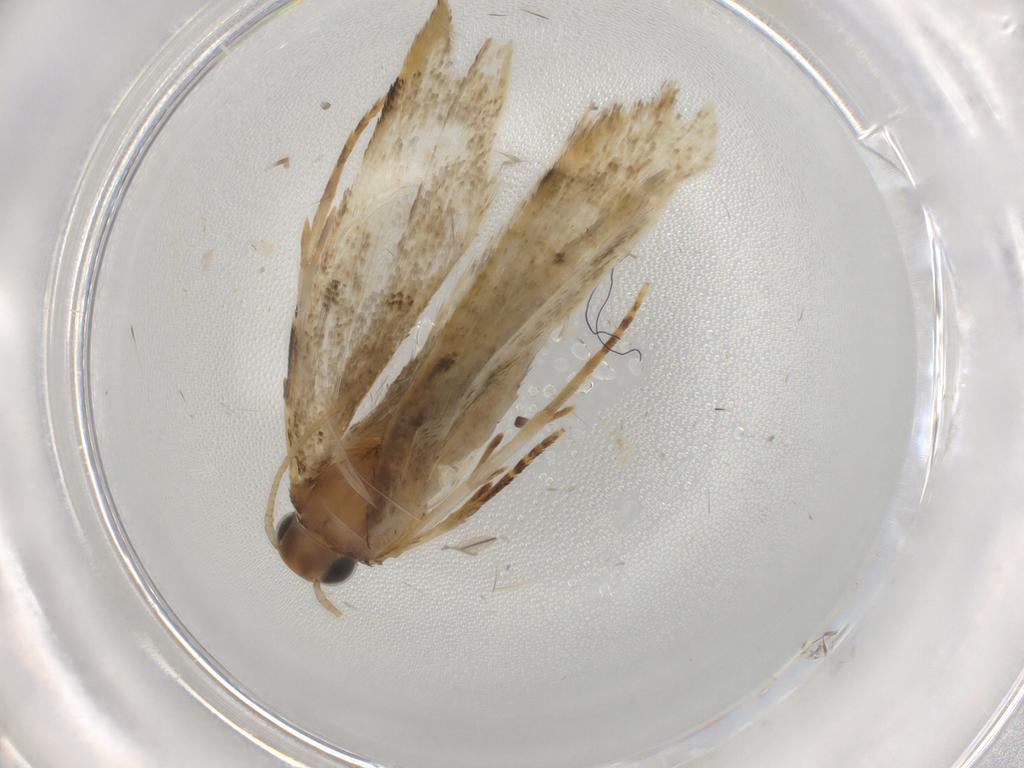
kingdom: Animalia
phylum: Arthropoda
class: Insecta
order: Lepidoptera
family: Gelechiidae
